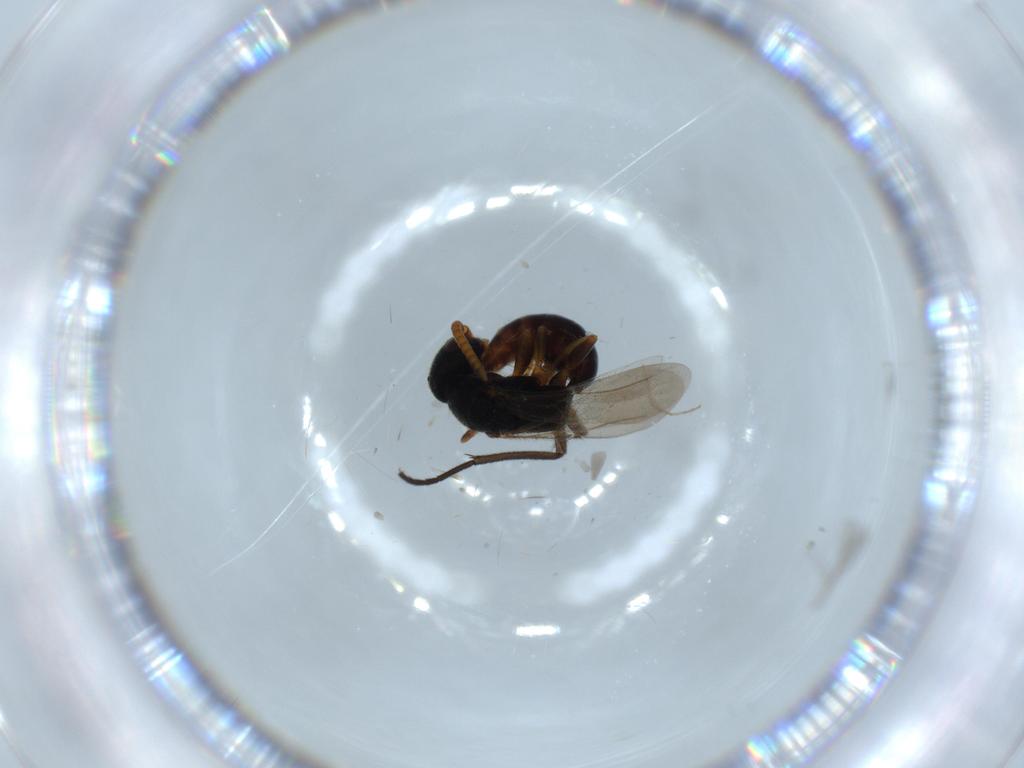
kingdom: Animalia
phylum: Arthropoda
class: Insecta
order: Hymenoptera
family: Bethylidae
